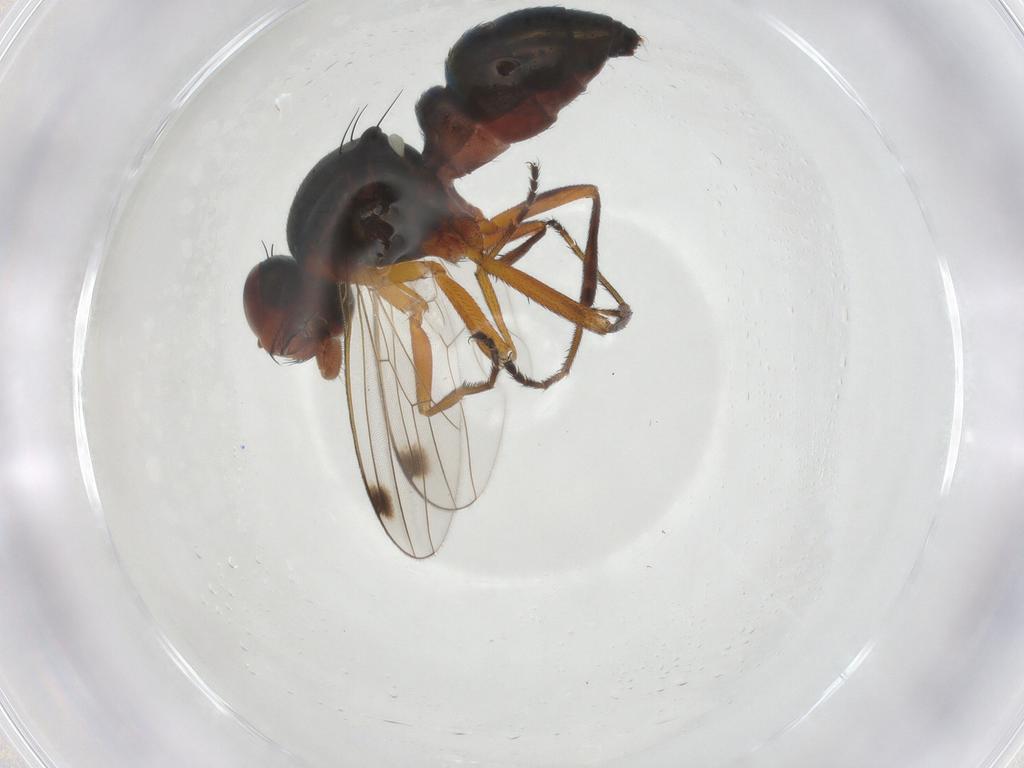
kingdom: Animalia
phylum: Arthropoda
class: Insecta
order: Diptera
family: Sepsidae
